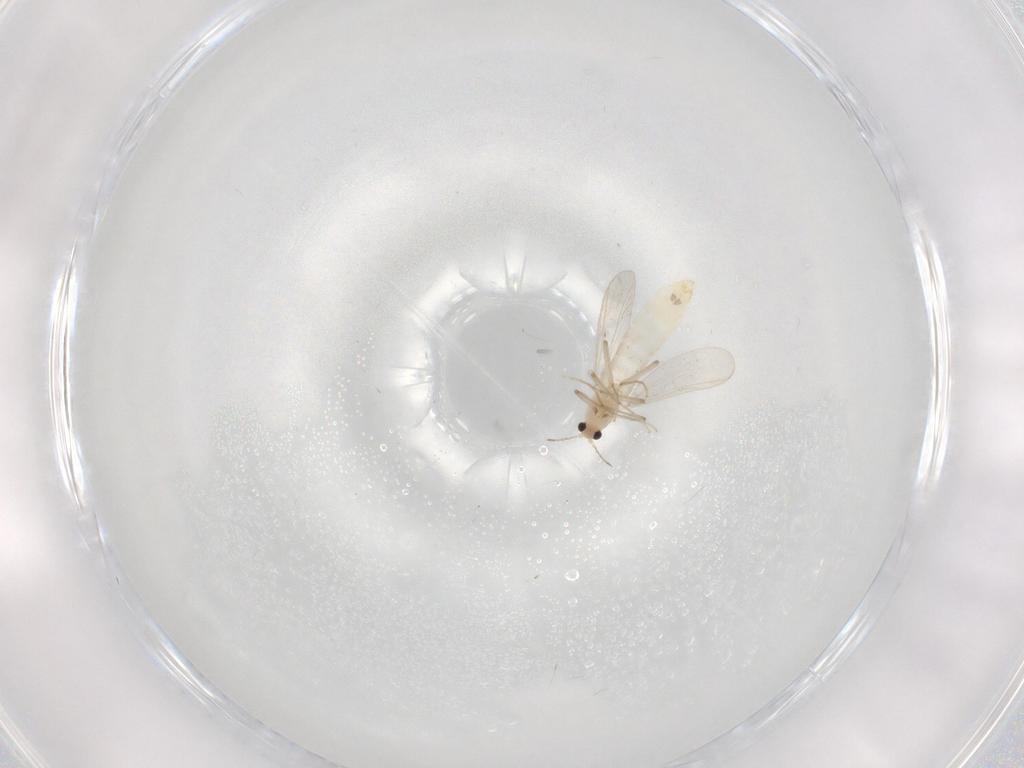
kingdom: Animalia
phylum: Arthropoda
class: Insecta
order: Diptera
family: Chironomidae
